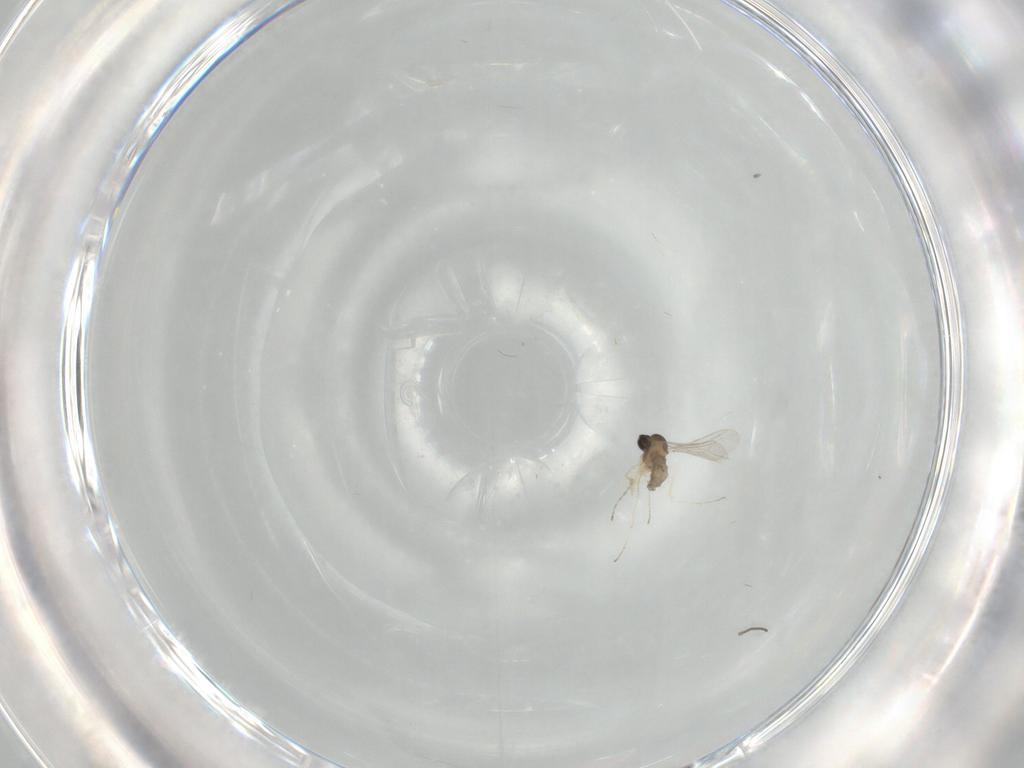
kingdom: Animalia
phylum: Arthropoda
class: Insecta
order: Diptera
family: Cecidomyiidae
